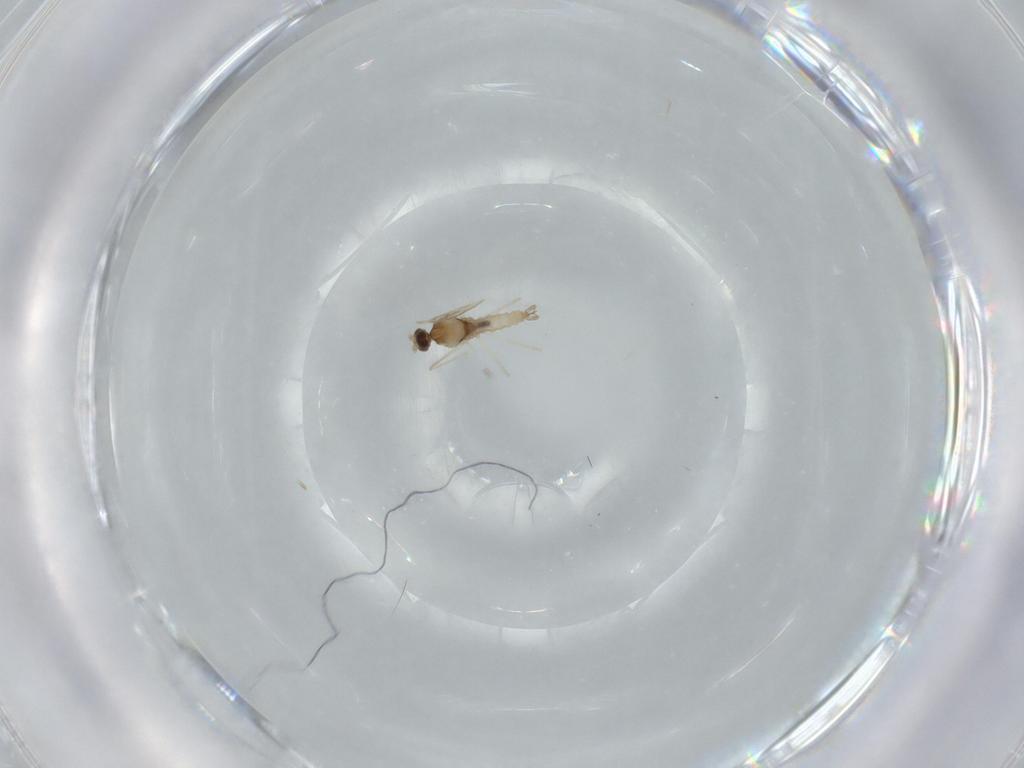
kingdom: Animalia
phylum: Arthropoda
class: Insecta
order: Diptera
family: Cecidomyiidae
